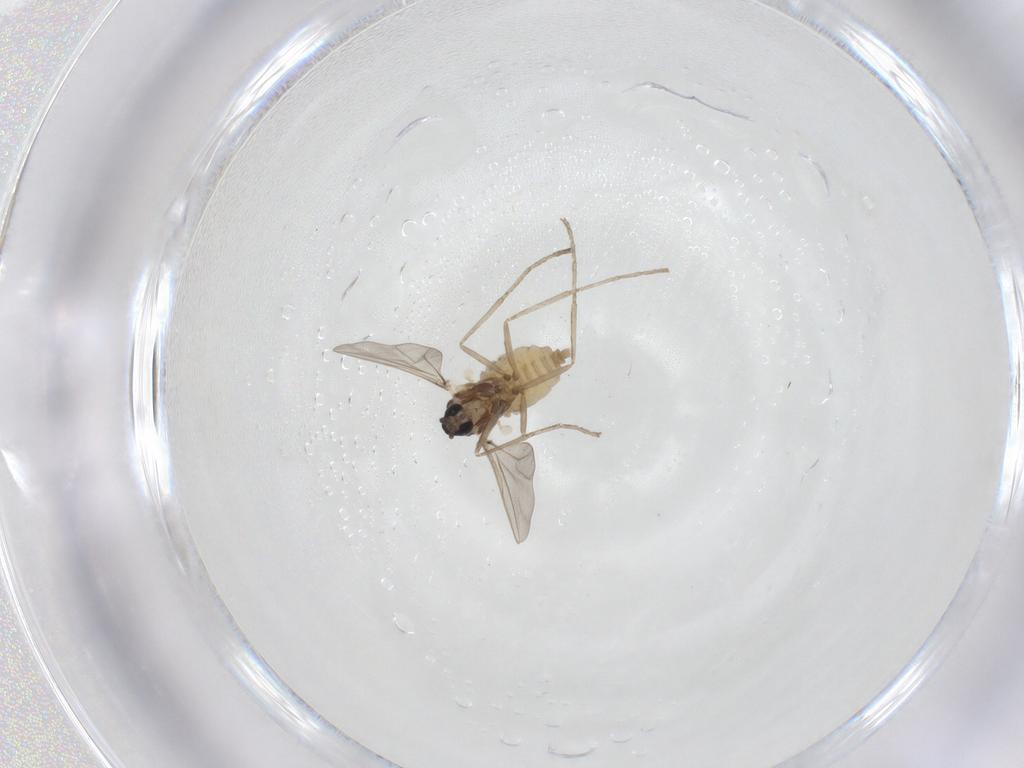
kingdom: Animalia
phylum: Arthropoda
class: Insecta
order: Diptera
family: Cecidomyiidae
